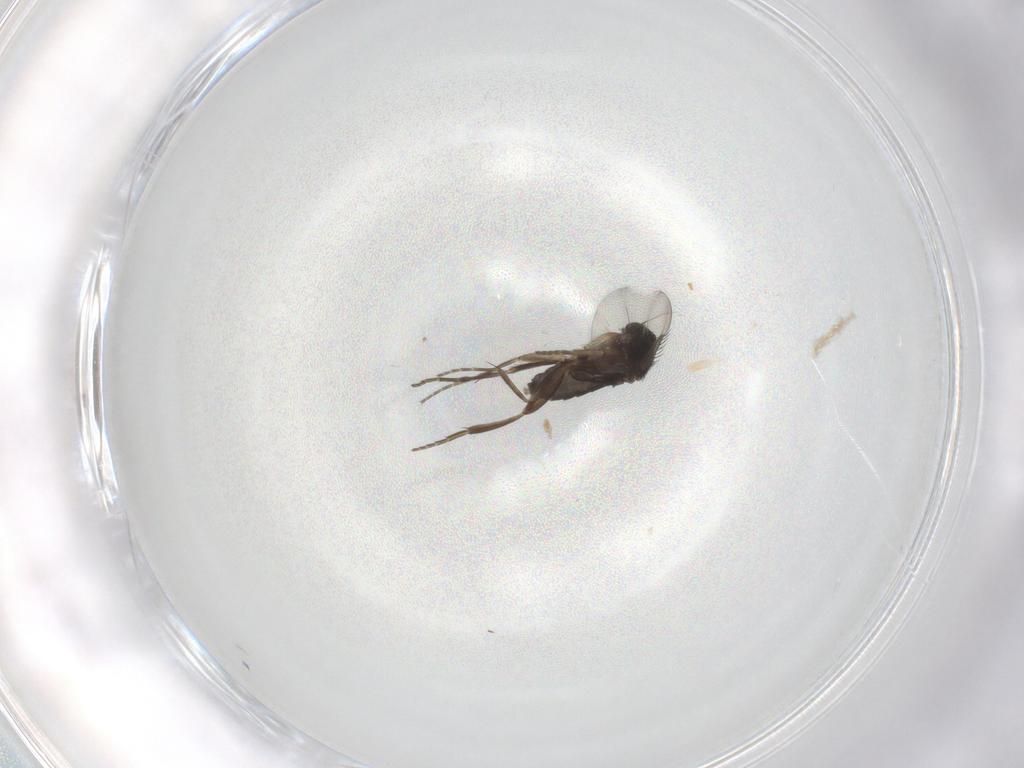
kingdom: Animalia
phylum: Arthropoda
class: Insecta
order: Diptera
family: Phoridae
